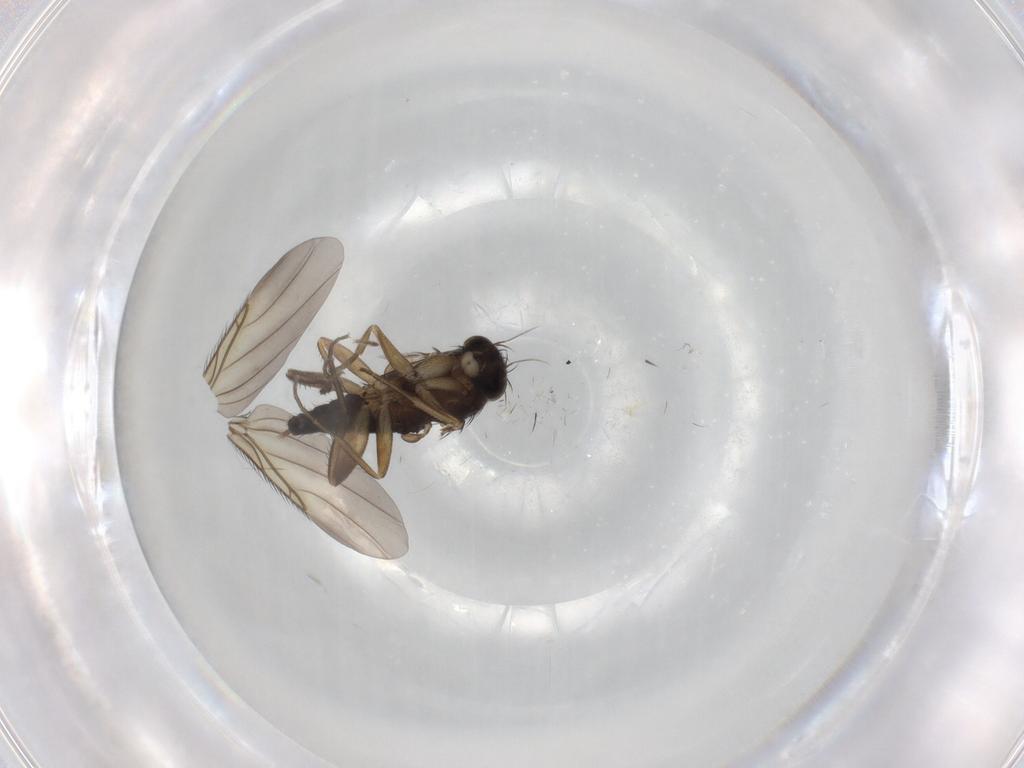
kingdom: Animalia
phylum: Arthropoda
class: Insecta
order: Diptera
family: Phoridae
